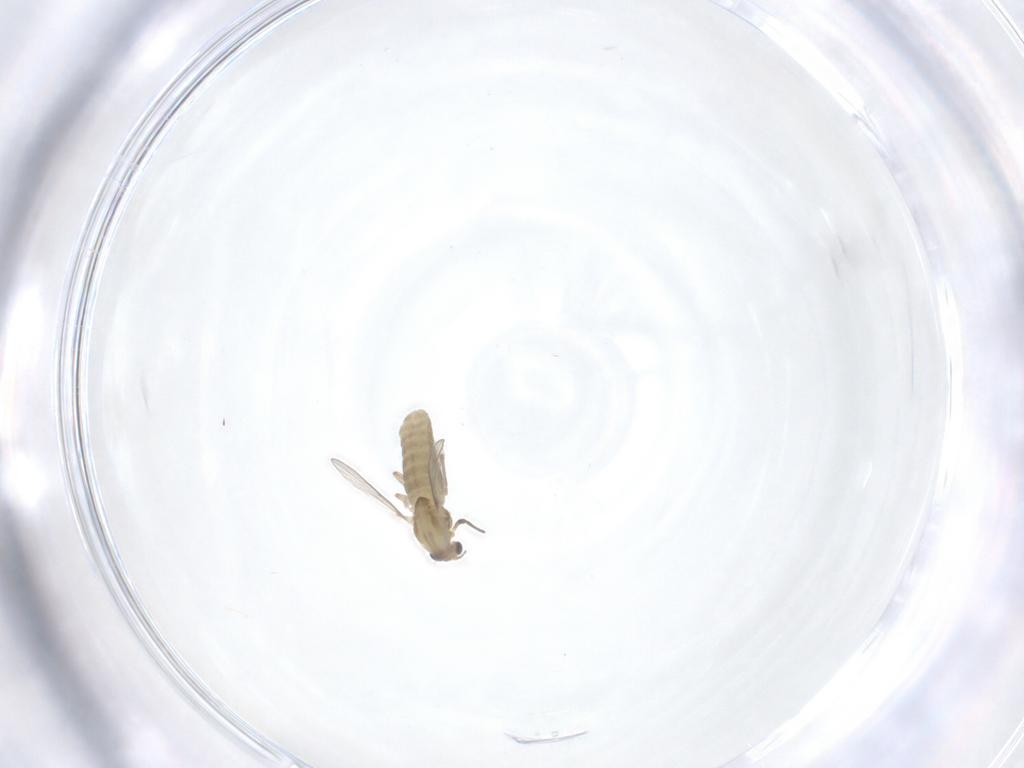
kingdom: Animalia
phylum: Arthropoda
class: Insecta
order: Diptera
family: Chironomidae
